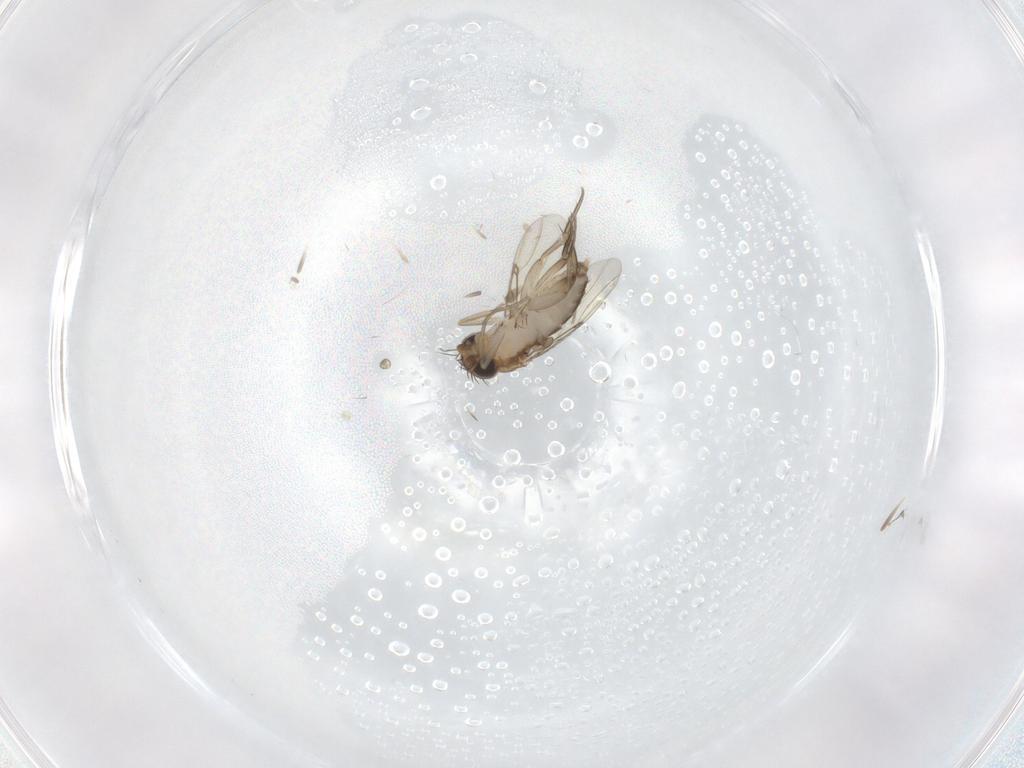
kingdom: Animalia
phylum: Arthropoda
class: Insecta
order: Diptera
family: Phoridae
